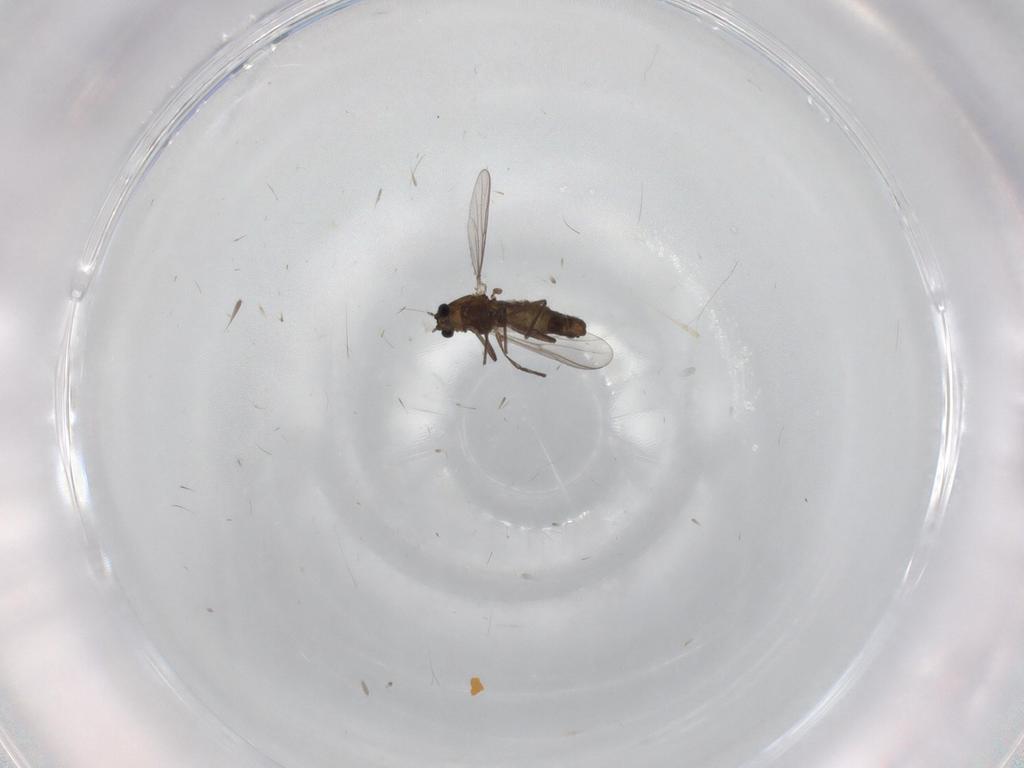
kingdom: Animalia
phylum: Arthropoda
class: Insecta
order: Diptera
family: Chironomidae
